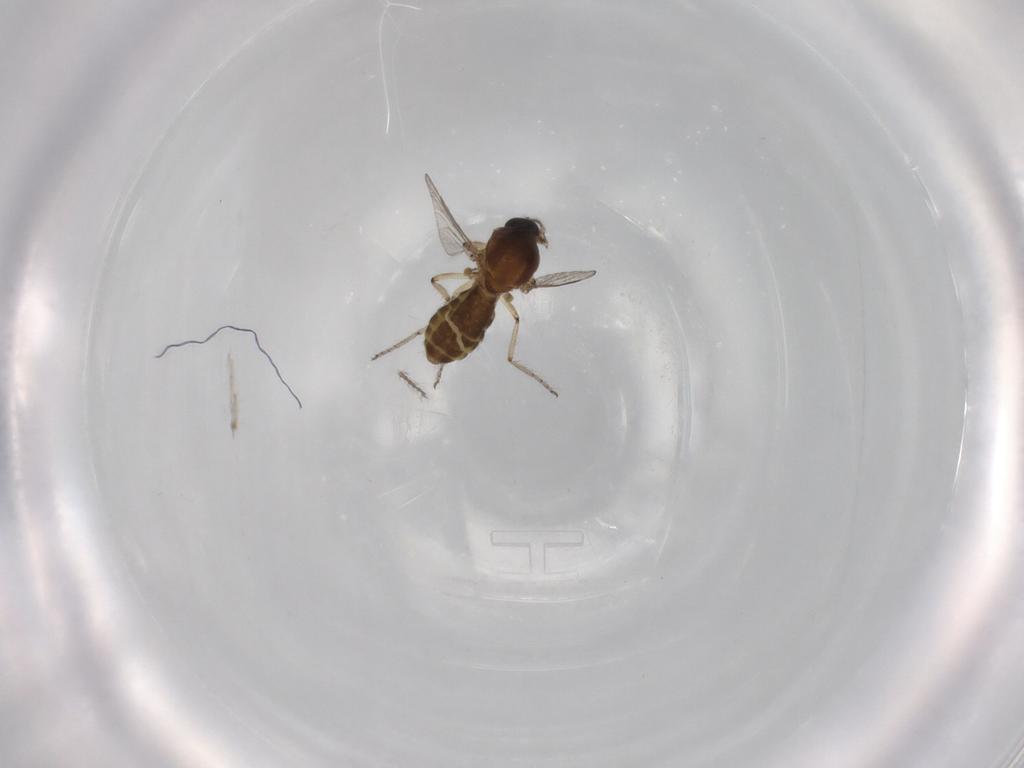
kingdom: Animalia
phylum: Arthropoda
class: Insecta
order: Diptera
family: Ceratopogonidae
